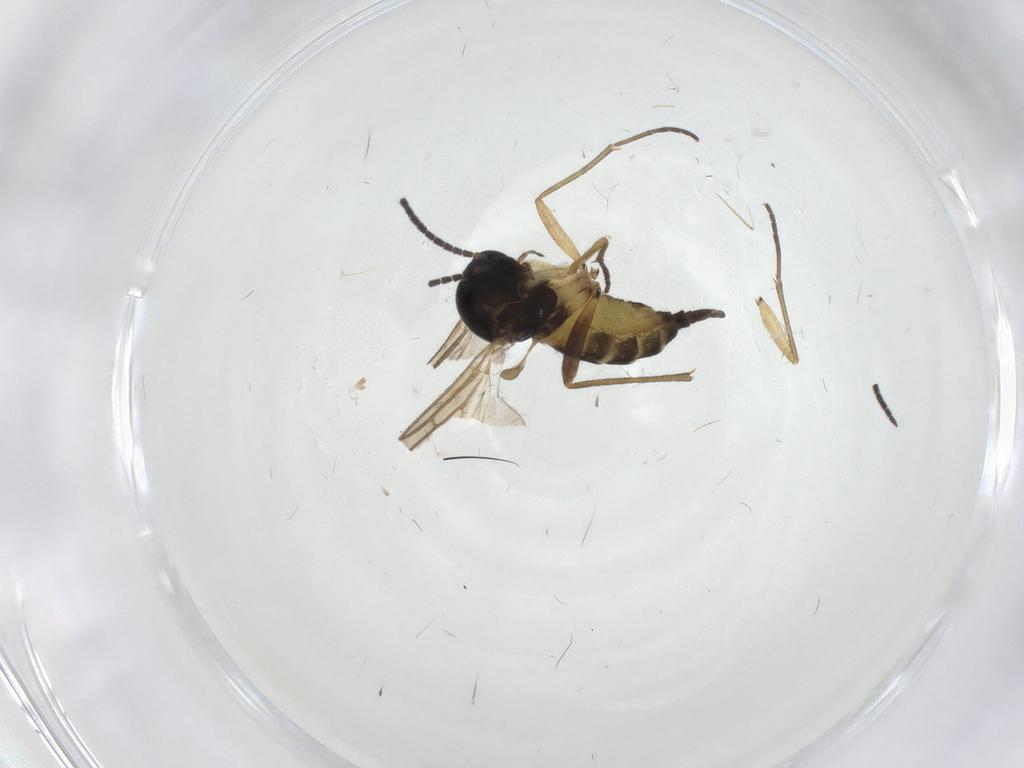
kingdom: Animalia
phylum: Arthropoda
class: Insecta
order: Diptera
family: Sciaridae
